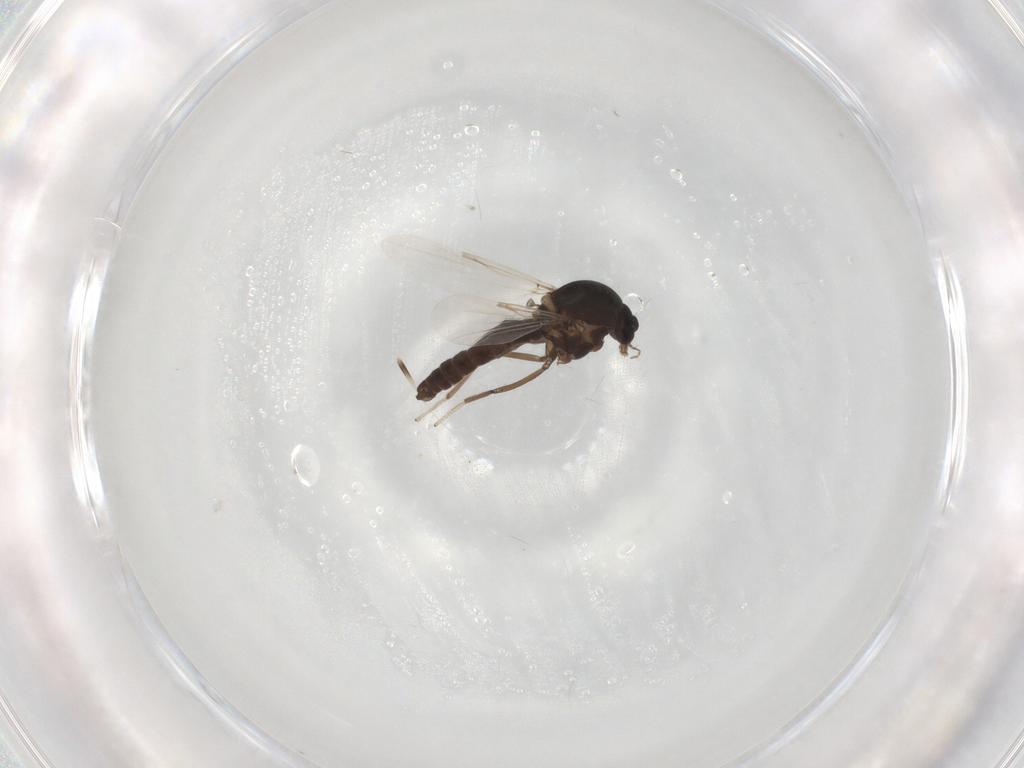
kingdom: Animalia
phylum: Arthropoda
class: Insecta
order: Diptera
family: Ceratopogonidae
